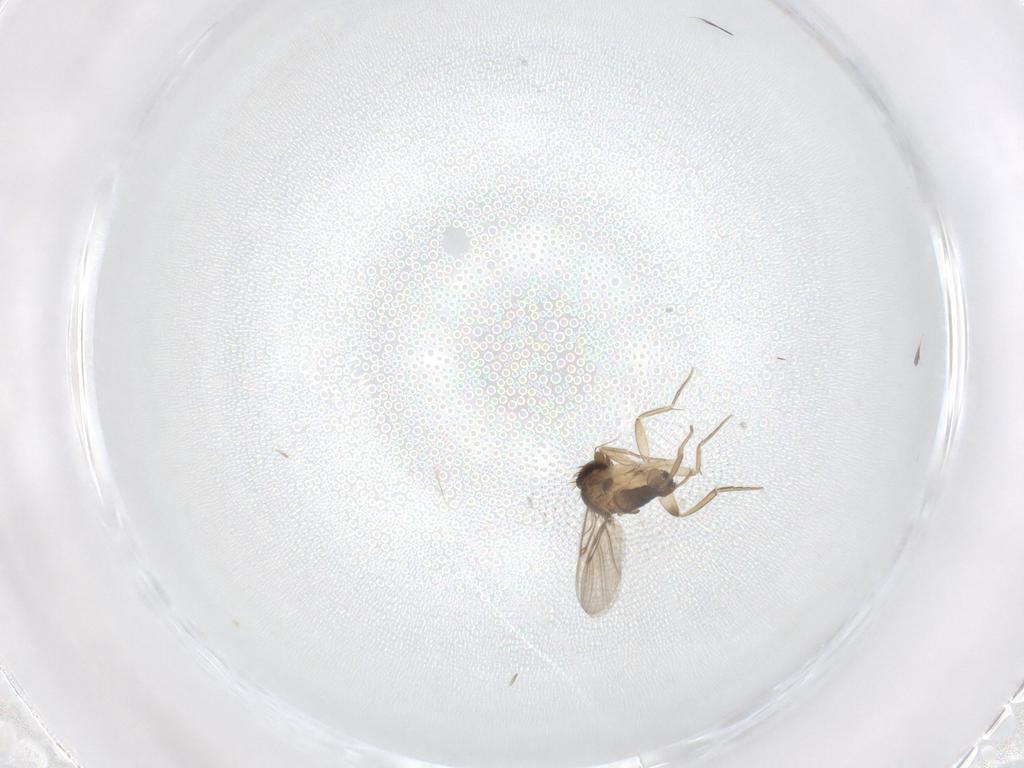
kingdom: Animalia
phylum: Arthropoda
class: Insecta
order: Diptera
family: Phoridae
